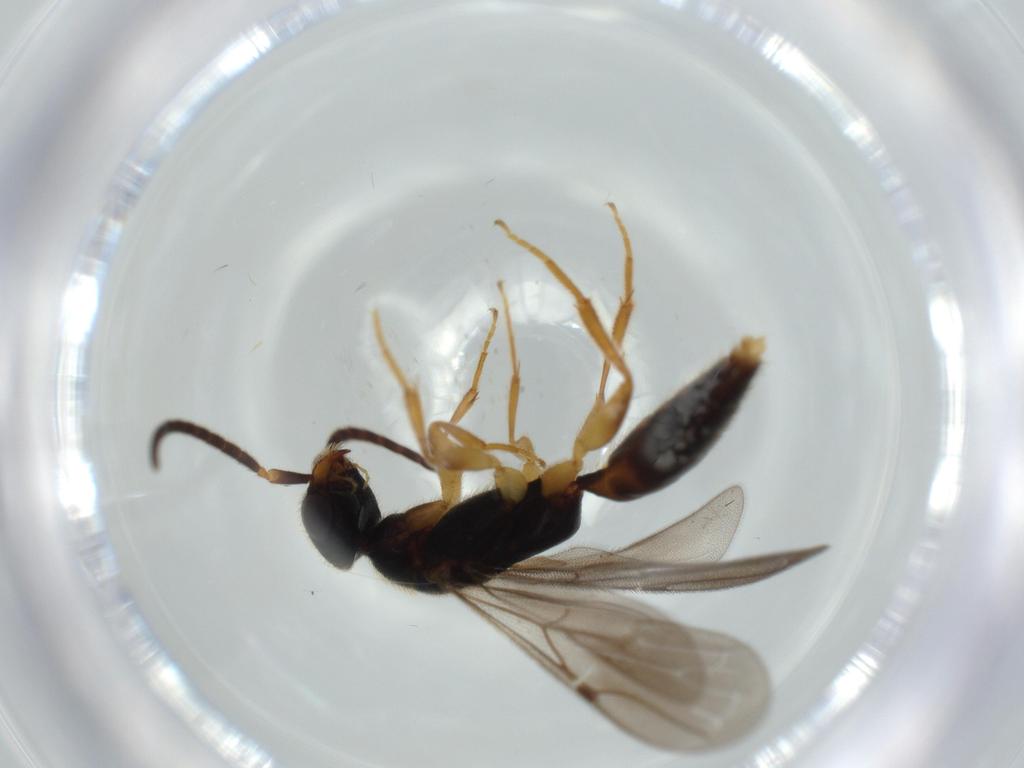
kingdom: Animalia
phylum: Arthropoda
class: Insecta
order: Hymenoptera
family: Bethylidae
